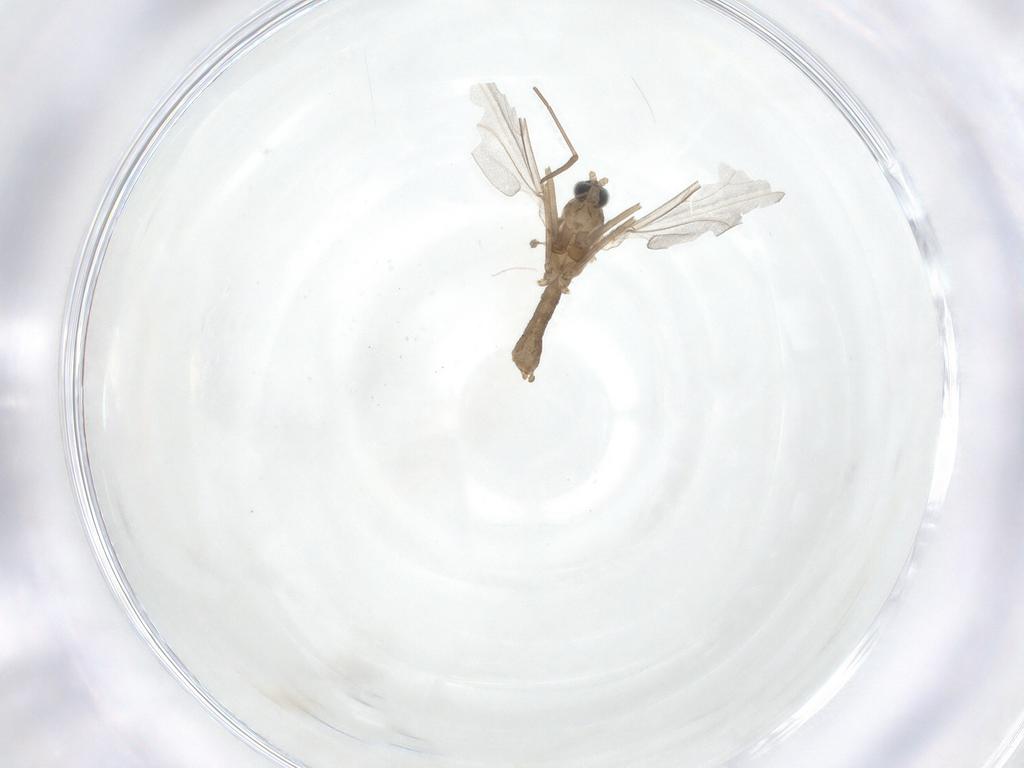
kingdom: Animalia
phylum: Arthropoda
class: Insecta
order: Diptera
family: Cecidomyiidae
